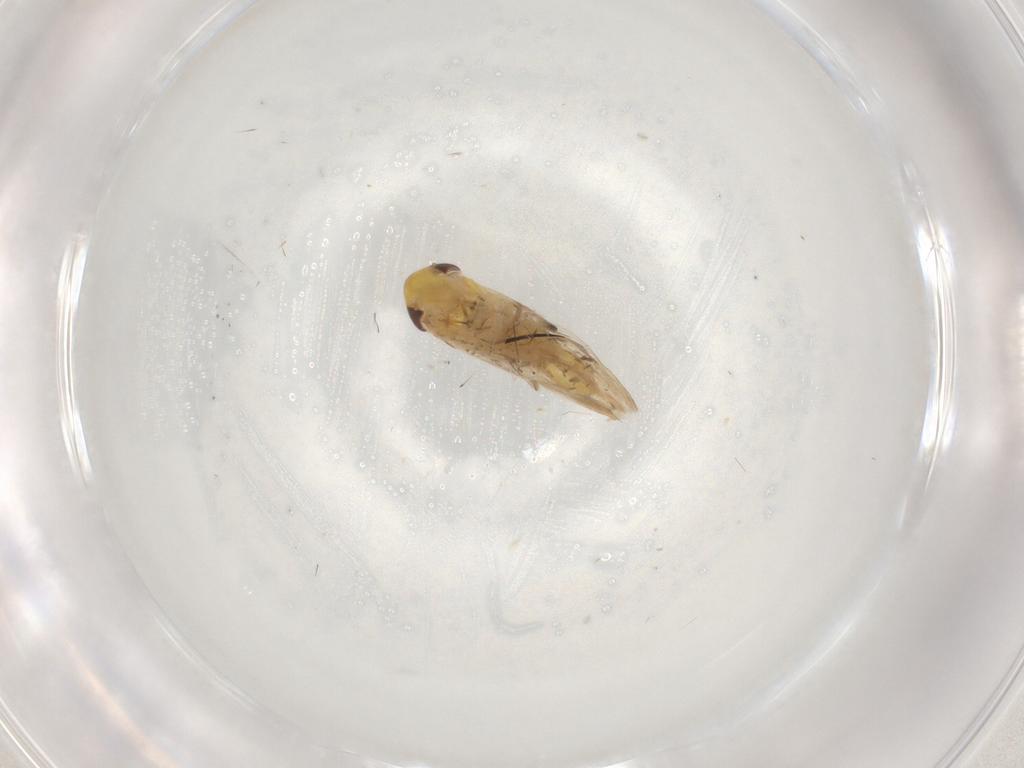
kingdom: Animalia
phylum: Arthropoda
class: Insecta
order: Hemiptera
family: Cicadellidae
